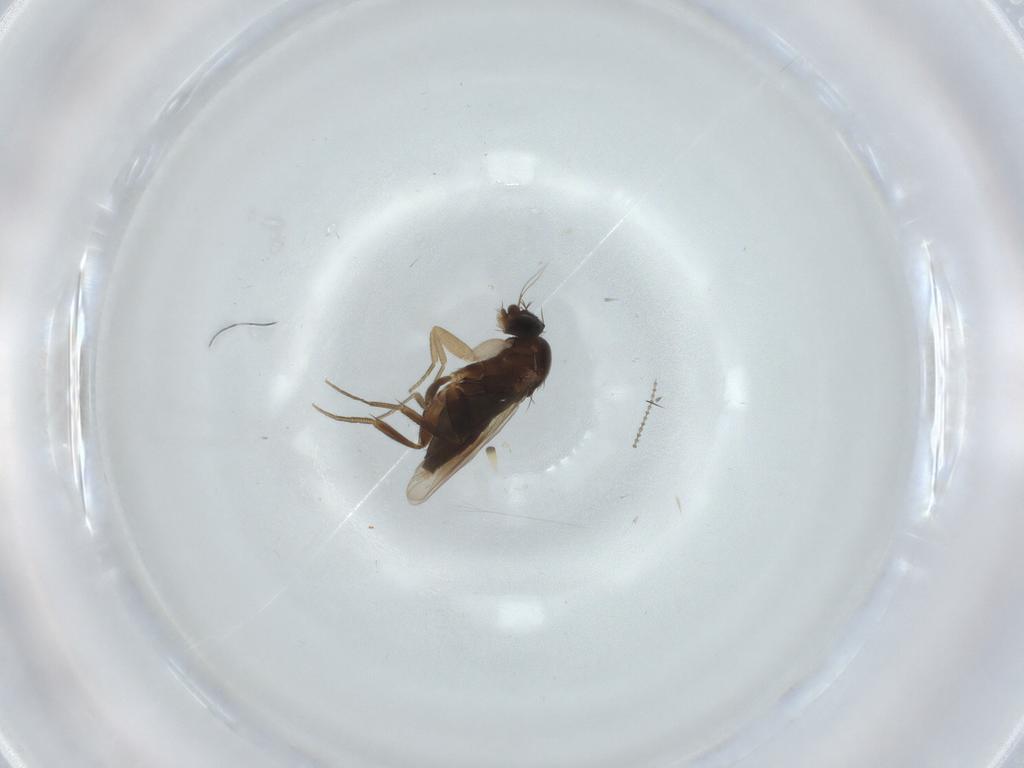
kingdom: Animalia
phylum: Arthropoda
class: Insecta
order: Diptera
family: Phoridae
